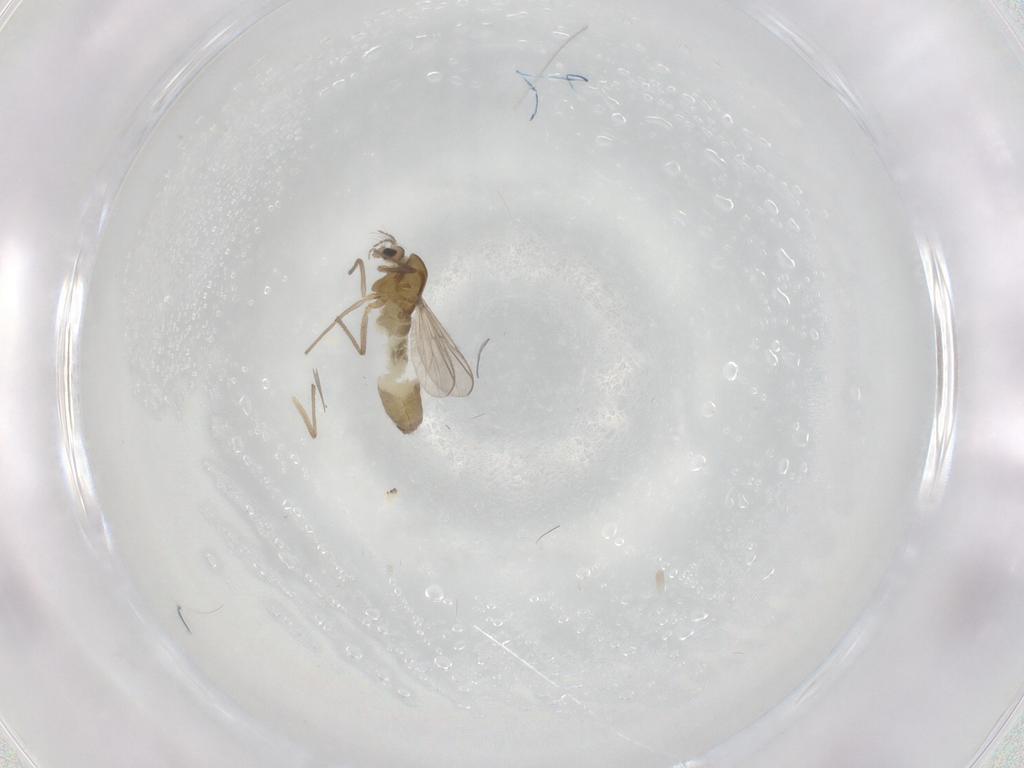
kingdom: Animalia
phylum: Arthropoda
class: Insecta
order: Diptera
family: Chironomidae
